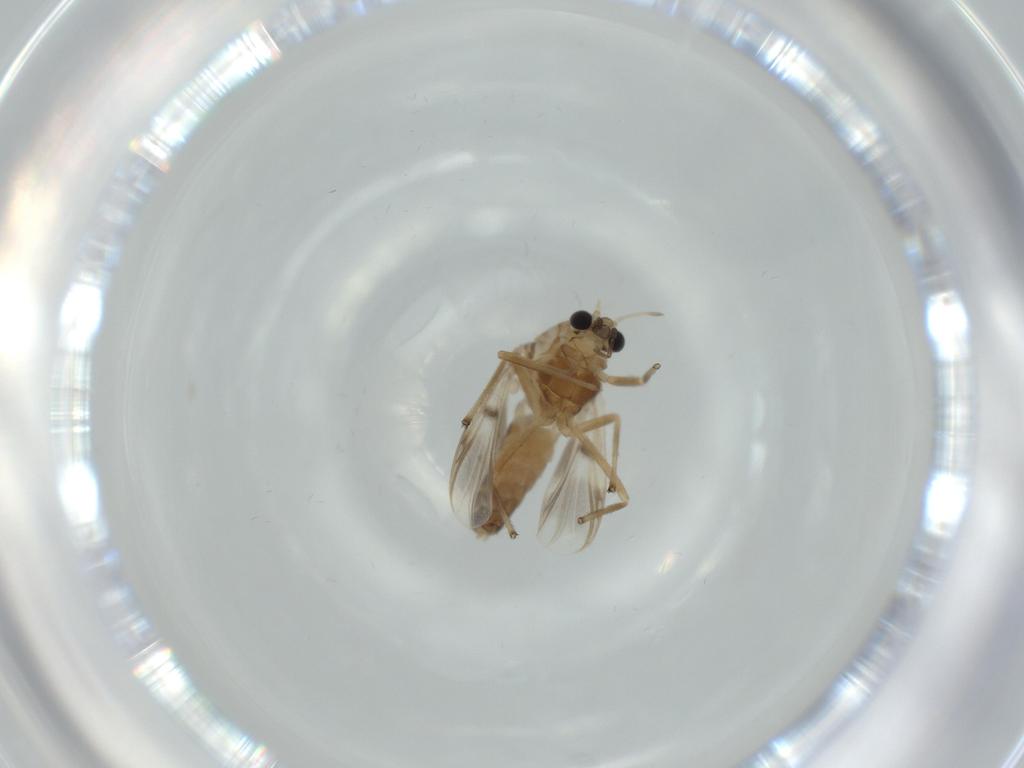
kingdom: Animalia
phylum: Arthropoda
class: Insecta
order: Diptera
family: Chironomidae
